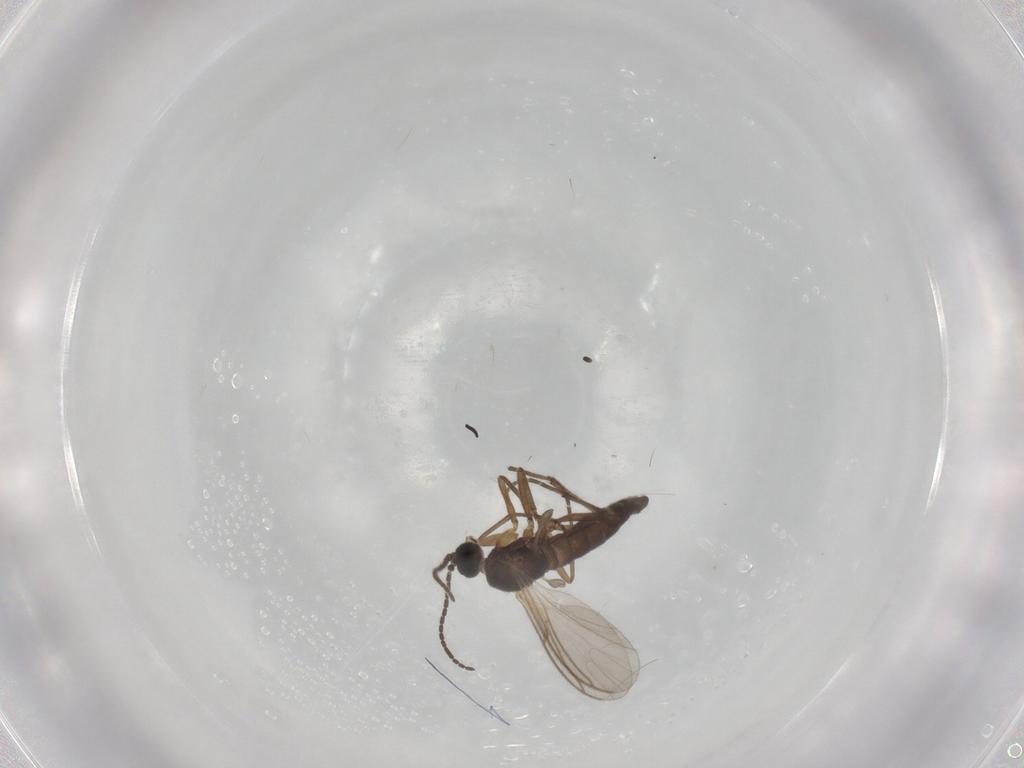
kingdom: Animalia
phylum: Arthropoda
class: Insecta
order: Diptera
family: Hybotidae
